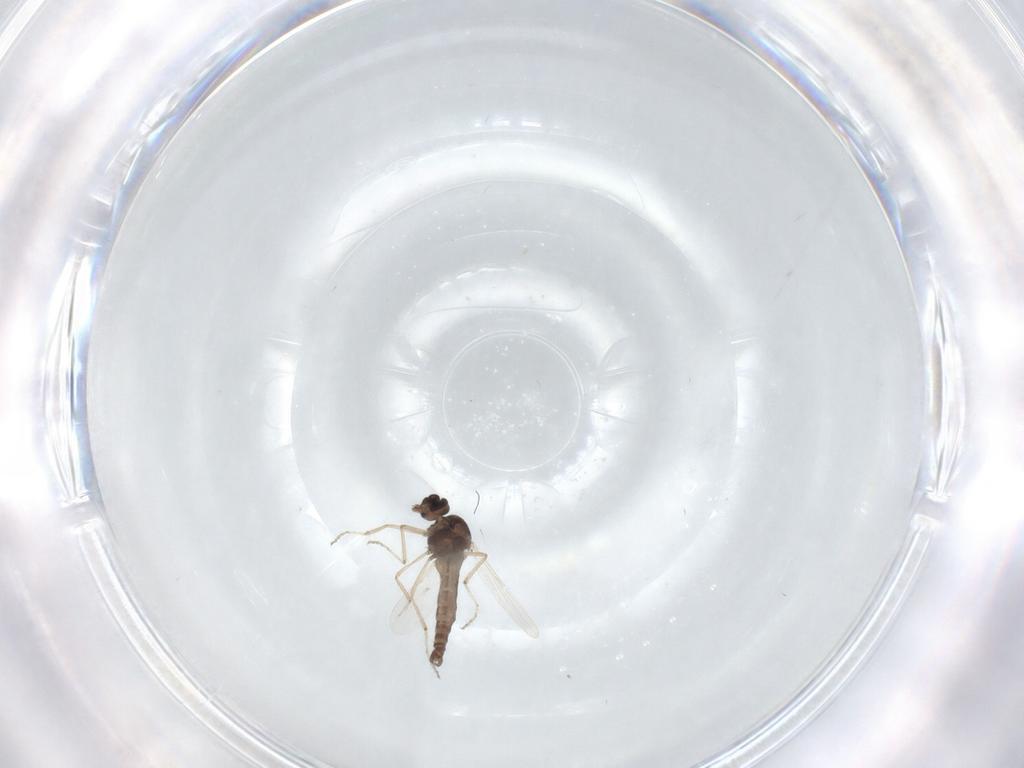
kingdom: Animalia
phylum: Arthropoda
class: Insecta
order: Diptera
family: Ceratopogonidae
